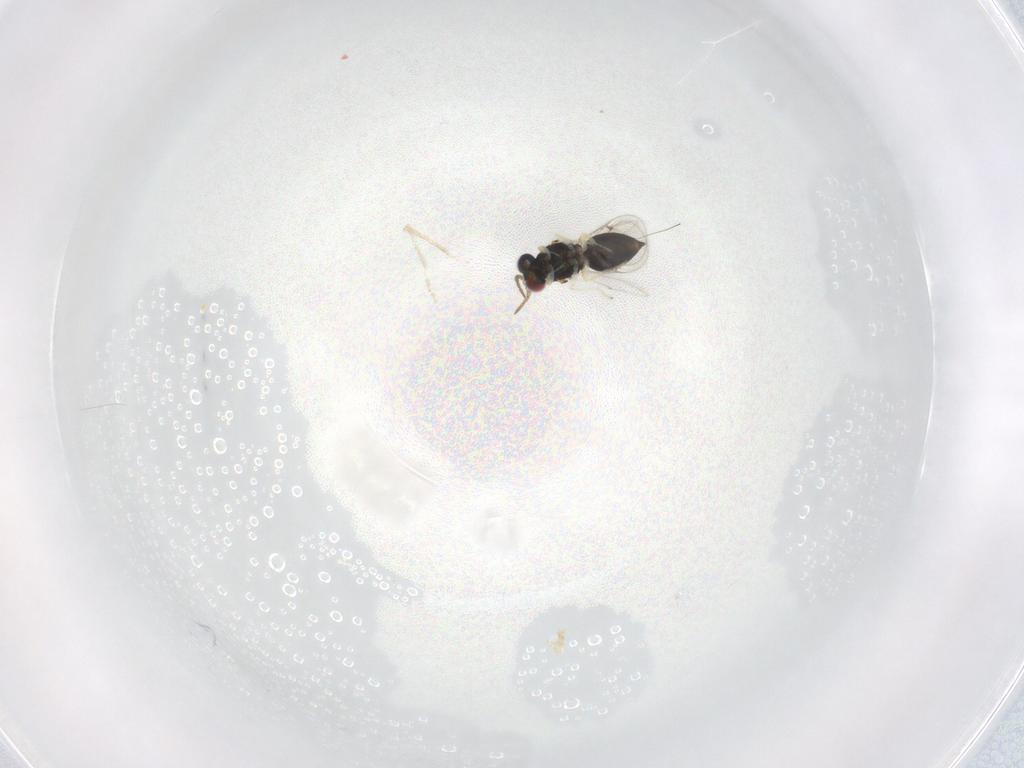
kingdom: Animalia
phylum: Arthropoda
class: Insecta
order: Hymenoptera
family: Eulophidae
